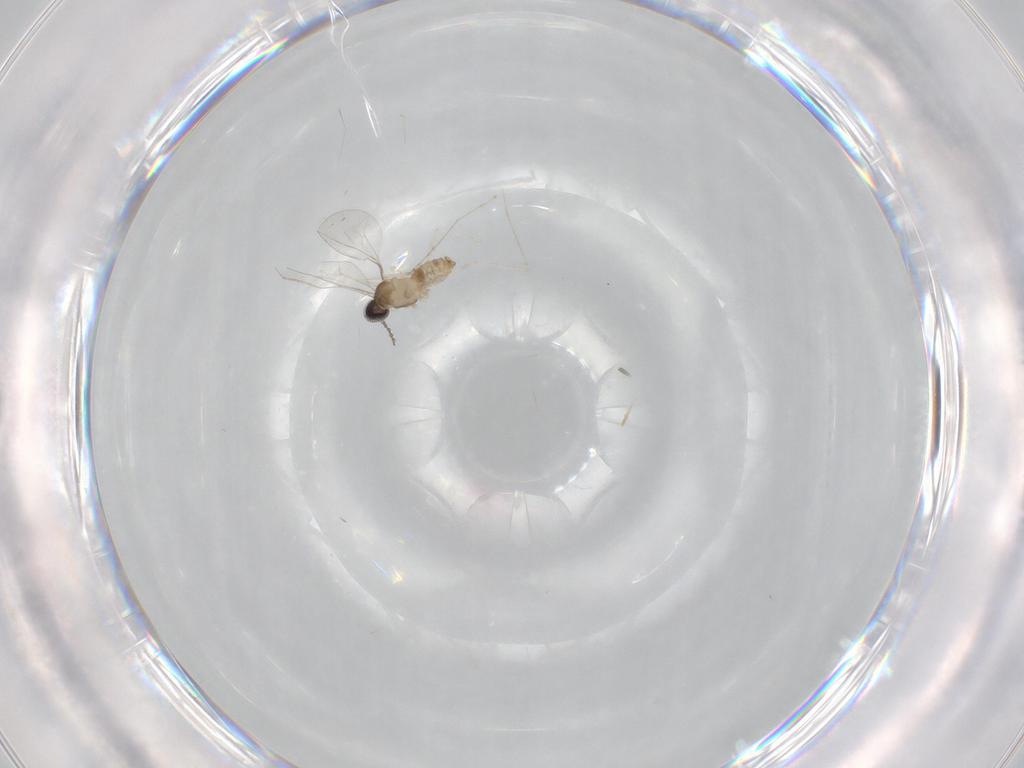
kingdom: Animalia
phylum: Arthropoda
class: Insecta
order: Diptera
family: Cecidomyiidae
